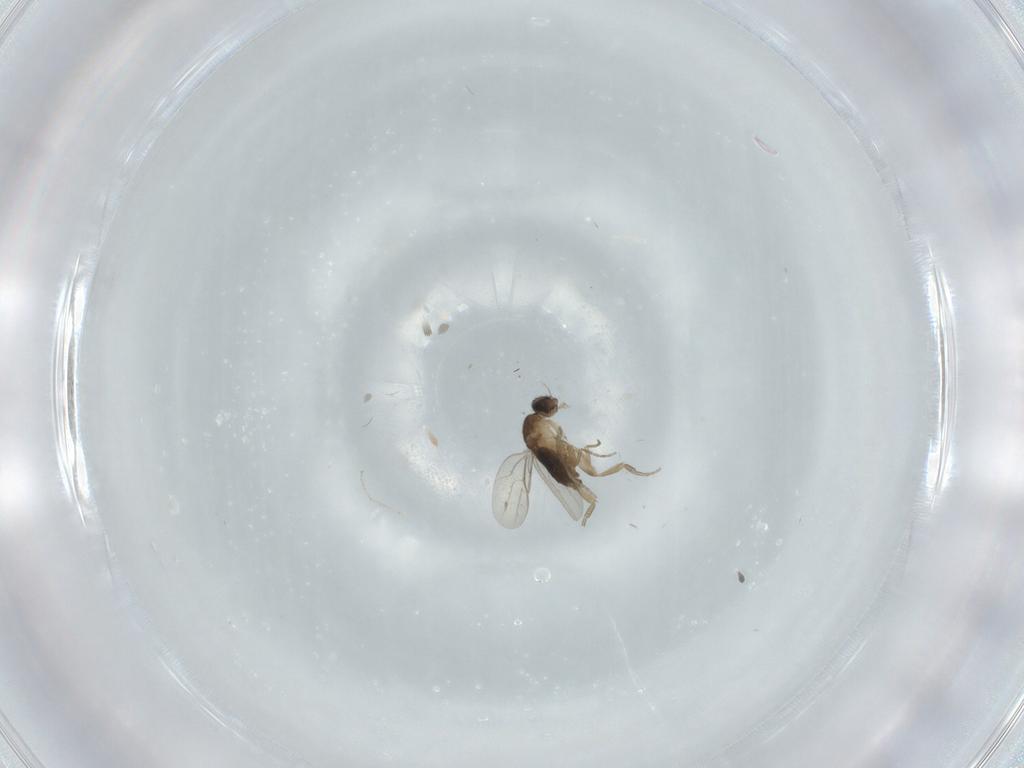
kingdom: Animalia
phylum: Arthropoda
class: Insecta
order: Diptera
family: Phoridae
